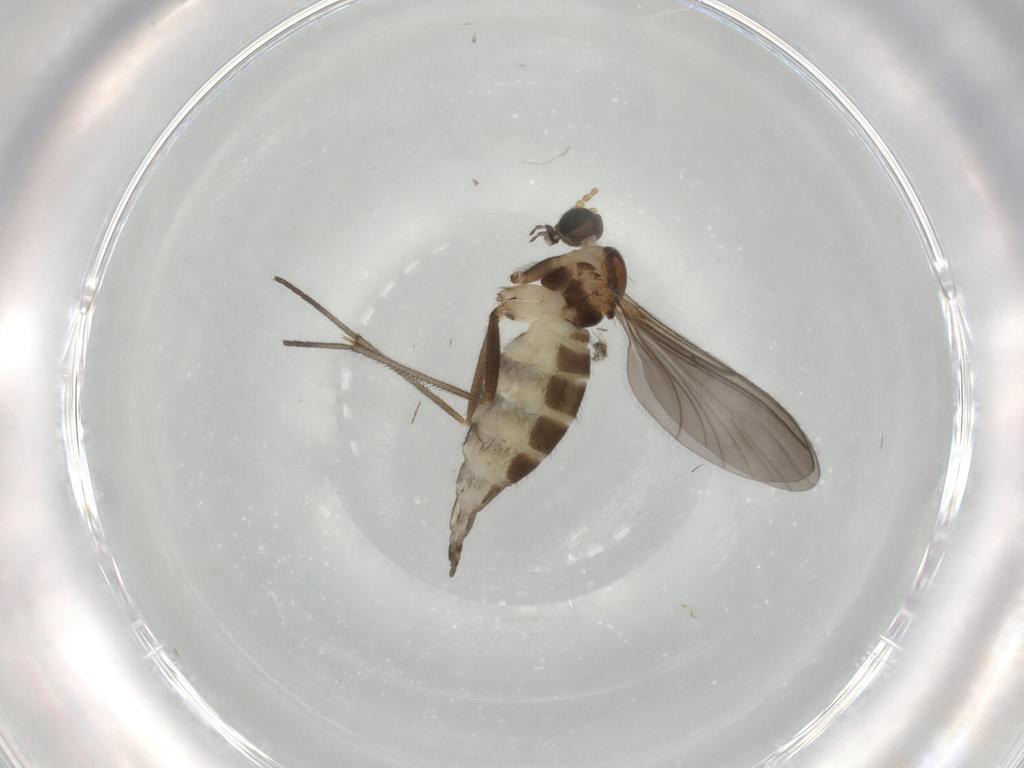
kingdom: Animalia
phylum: Arthropoda
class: Insecta
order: Diptera
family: Sciaridae
